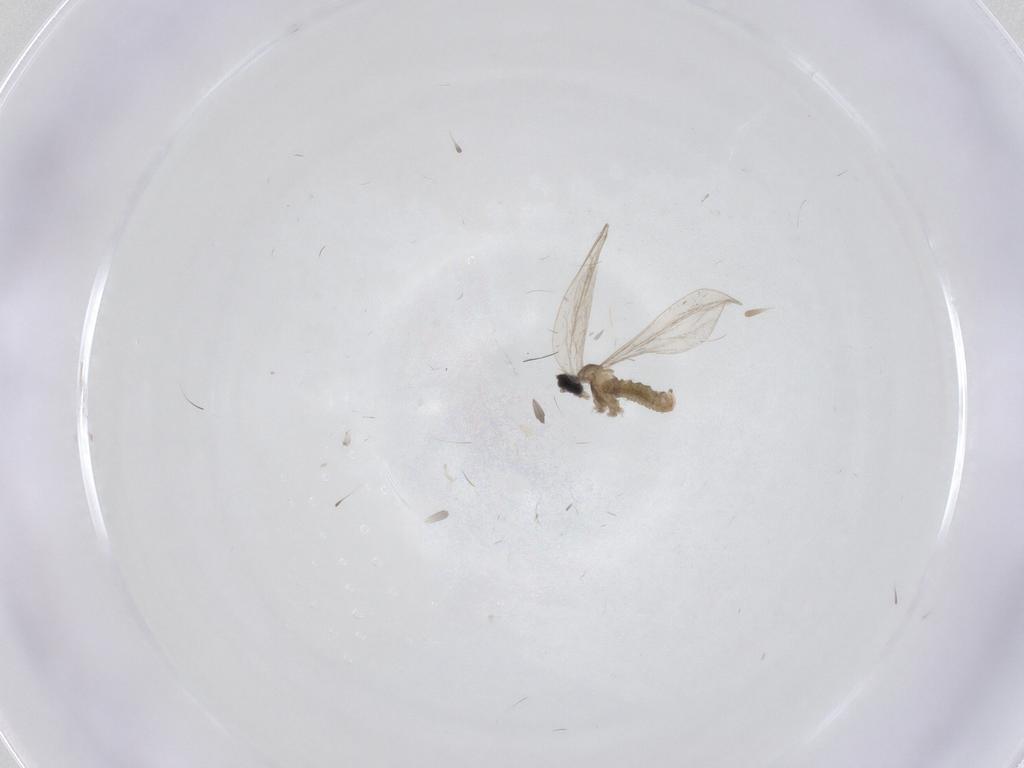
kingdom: Animalia
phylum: Arthropoda
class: Insecta
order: Diptera
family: Cecidomyiidae
